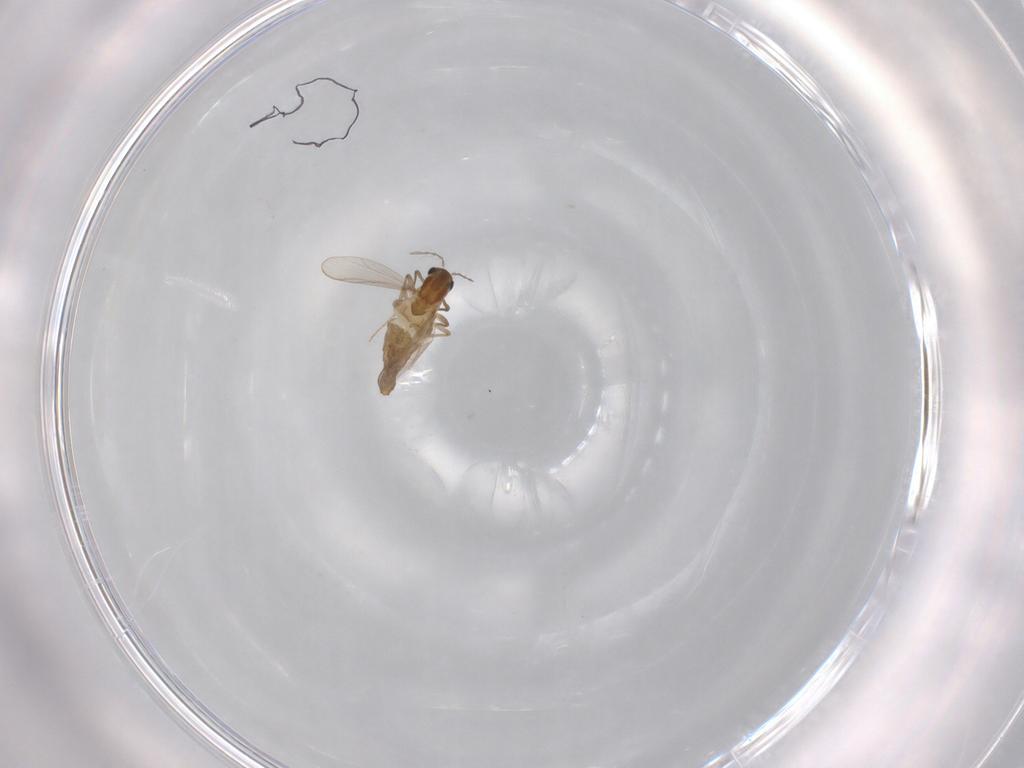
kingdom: Animalia
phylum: Arthropoda
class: Insecta
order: Diptera
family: Chironomidae
